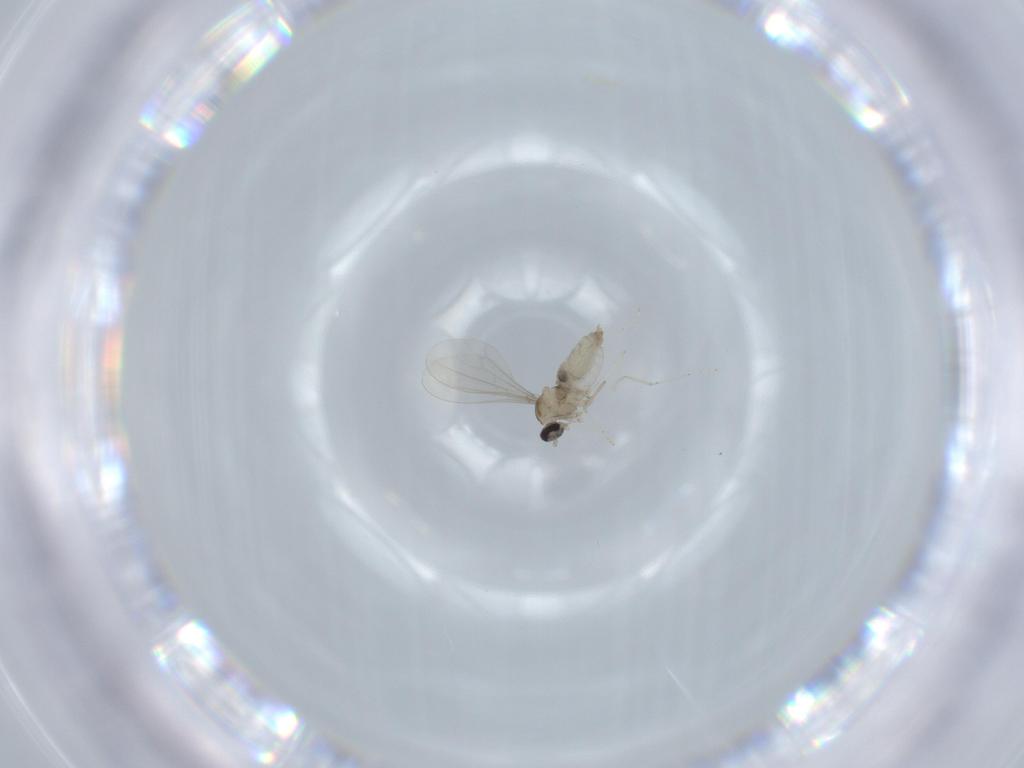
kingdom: Animalia
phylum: Arthropoda
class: Insecta
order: Diptera
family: Cecidomyiidae
